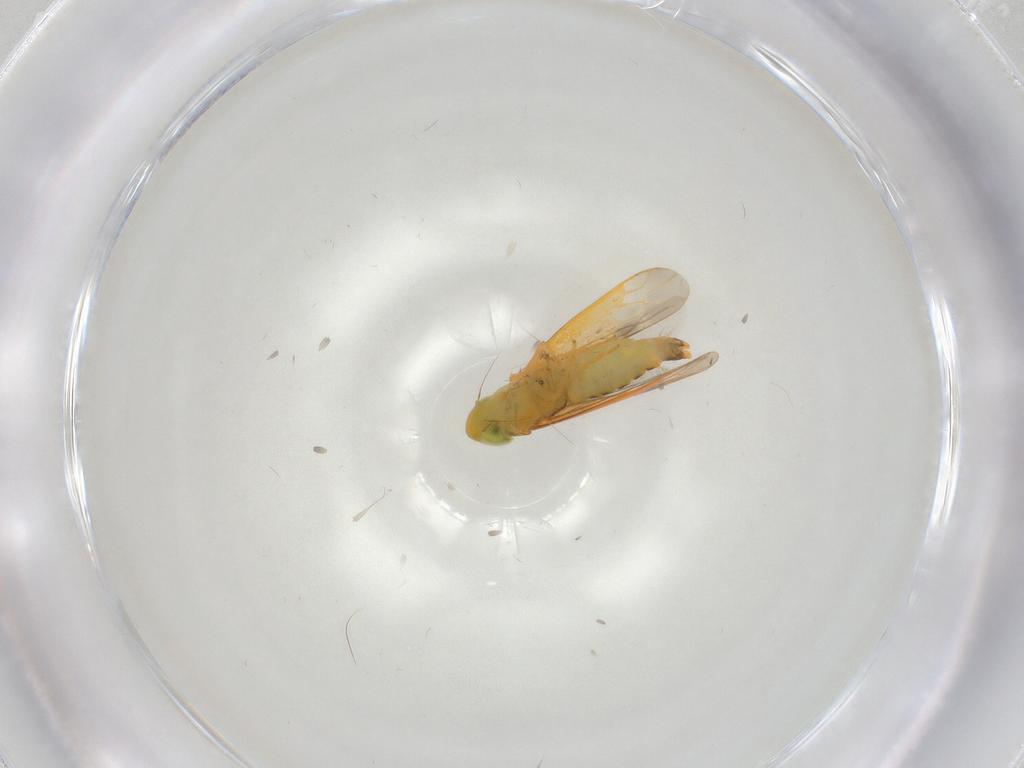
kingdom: Animalia
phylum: Arthropoda
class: Insecta
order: Hemiptera
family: Cicadellidae
